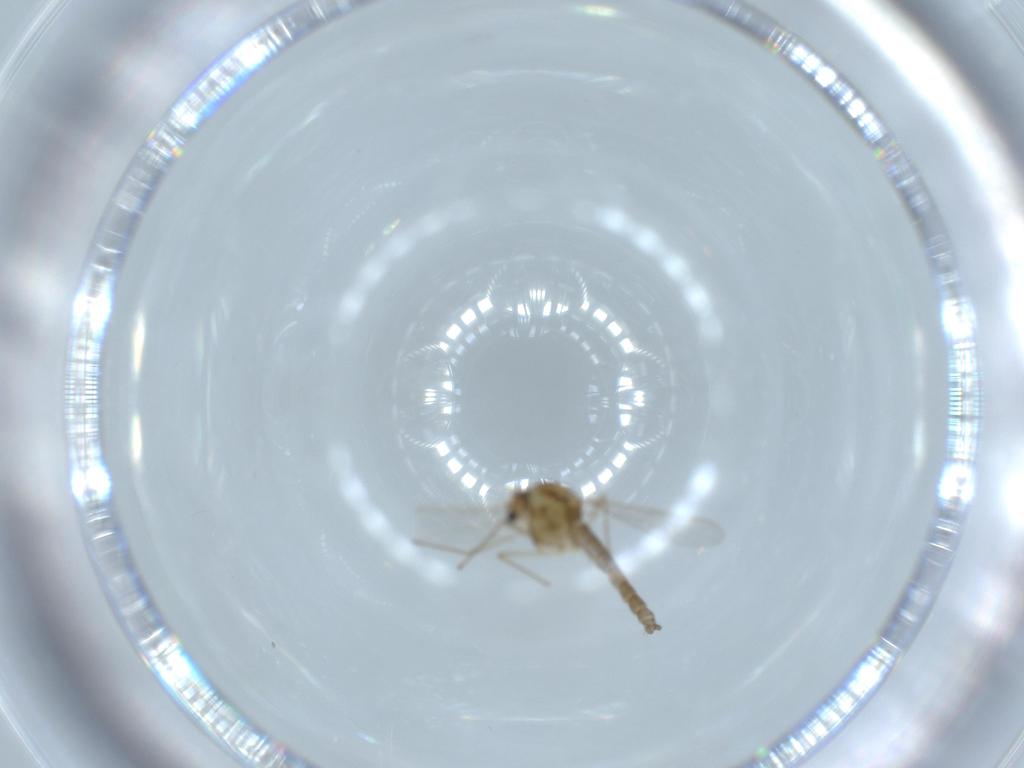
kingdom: Animalia
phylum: Arthropoda
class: Insecta
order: Diptera
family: Chironomidae
